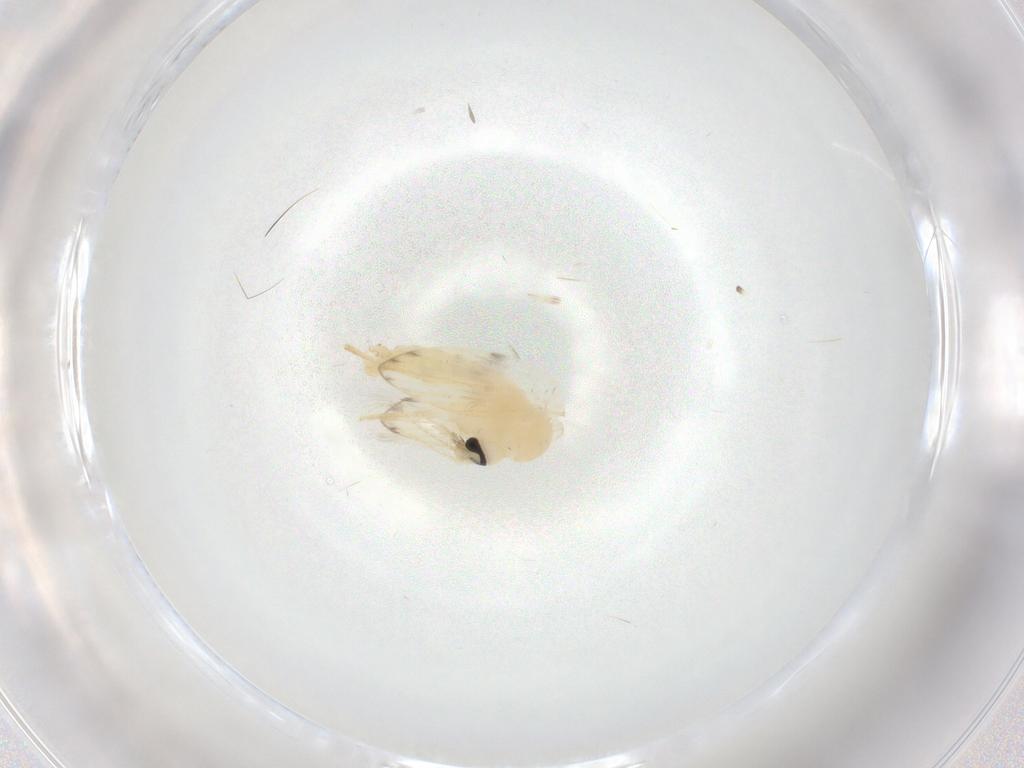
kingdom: Animalia
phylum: Arthropoda
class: Insecta
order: Diptera
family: Psychodidae
